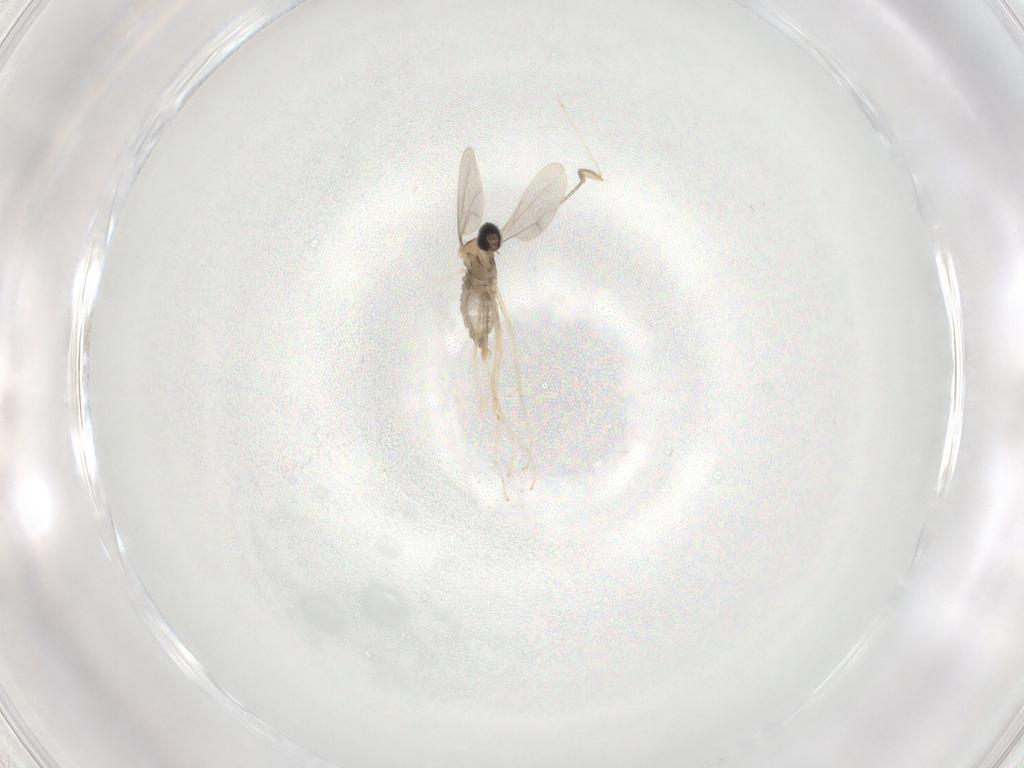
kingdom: Animalia
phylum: Arthropoda
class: Insecta
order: Diptera
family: Cecidomyiidae
